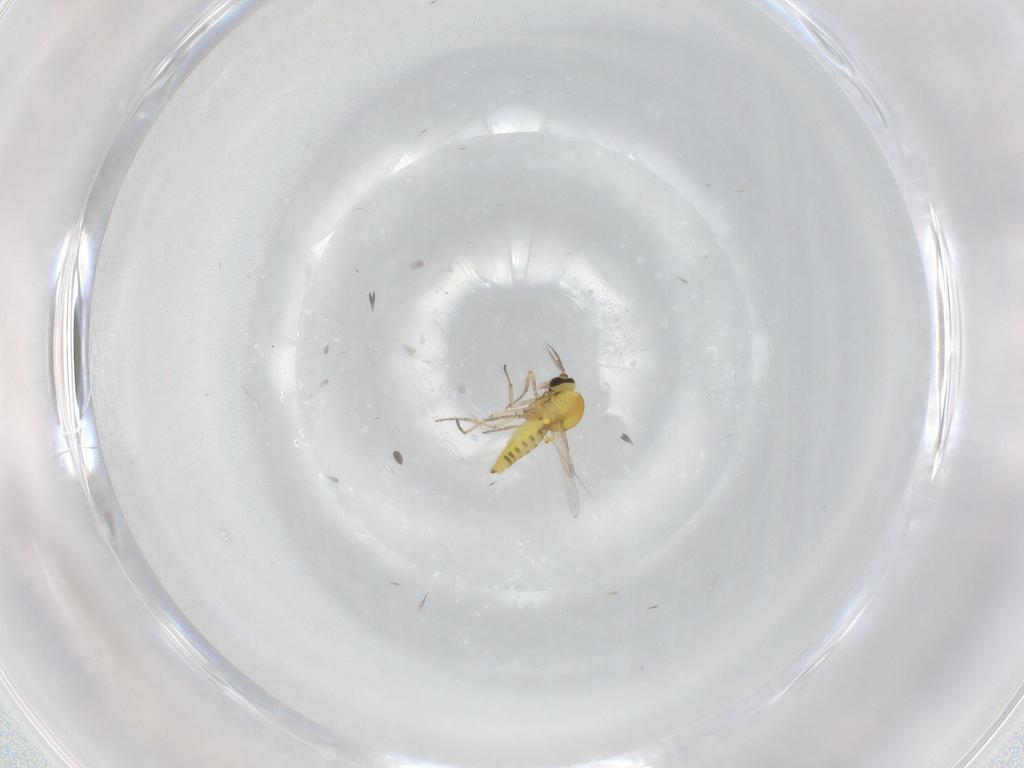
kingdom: Animalia
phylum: Arthropoda
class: Insecta
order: Diptera
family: Ceratopogonidae
